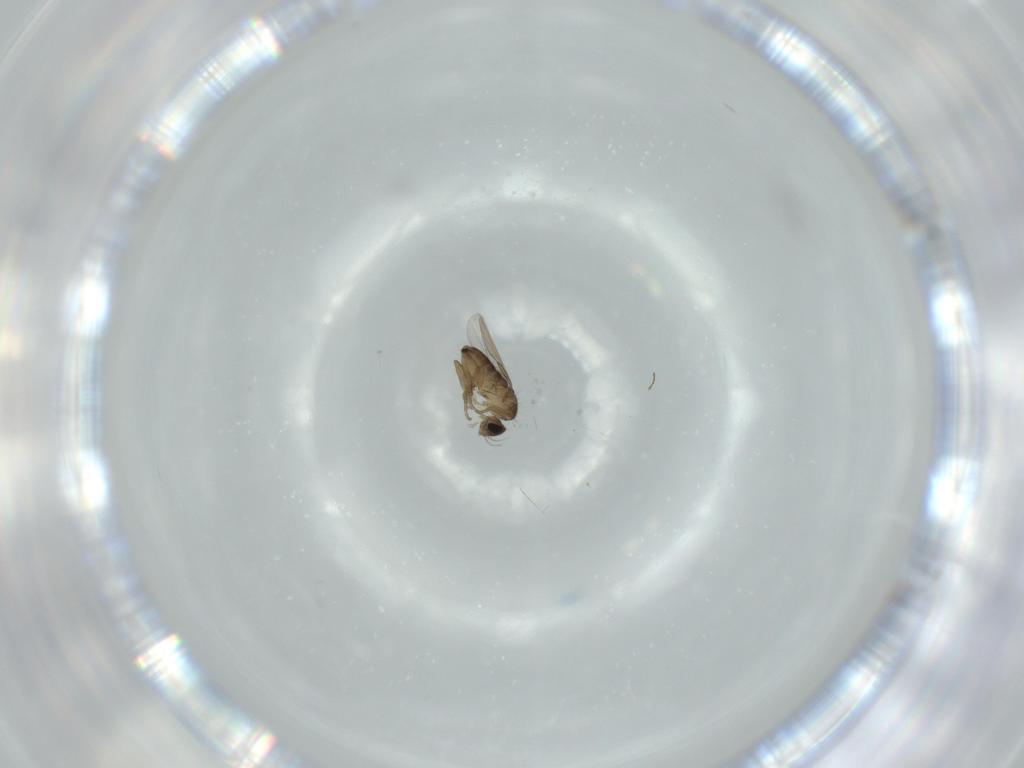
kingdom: Animalia
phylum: Arthropoda
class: Insecta
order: Diptera
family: Phoridae
